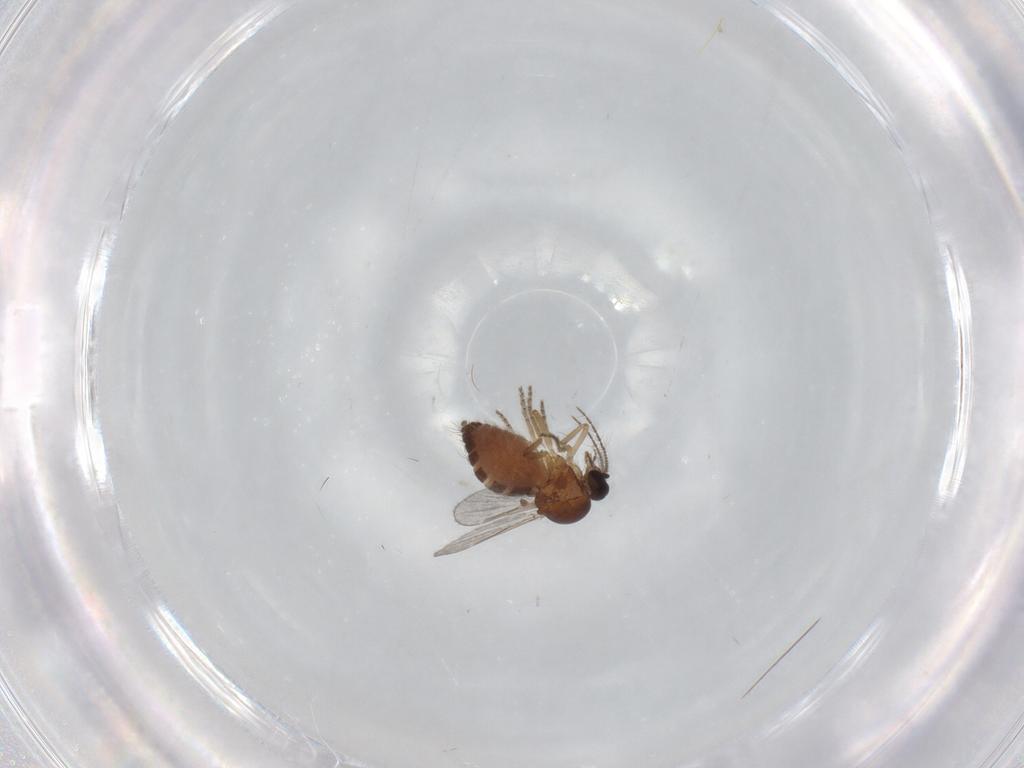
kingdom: Animalia
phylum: Arthropoda
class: Insecta
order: Diptera
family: Ceratopogonidae
